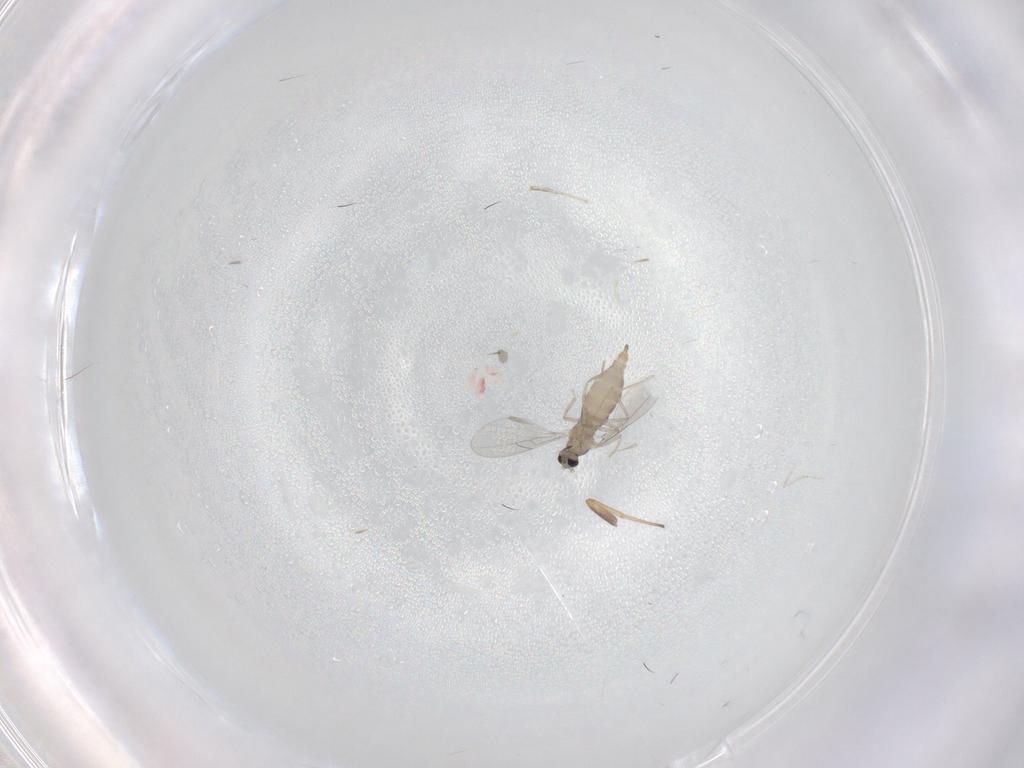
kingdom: Animalia
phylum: Arthropoda
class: Insecta
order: Diptera
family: Cecidomyiidae
